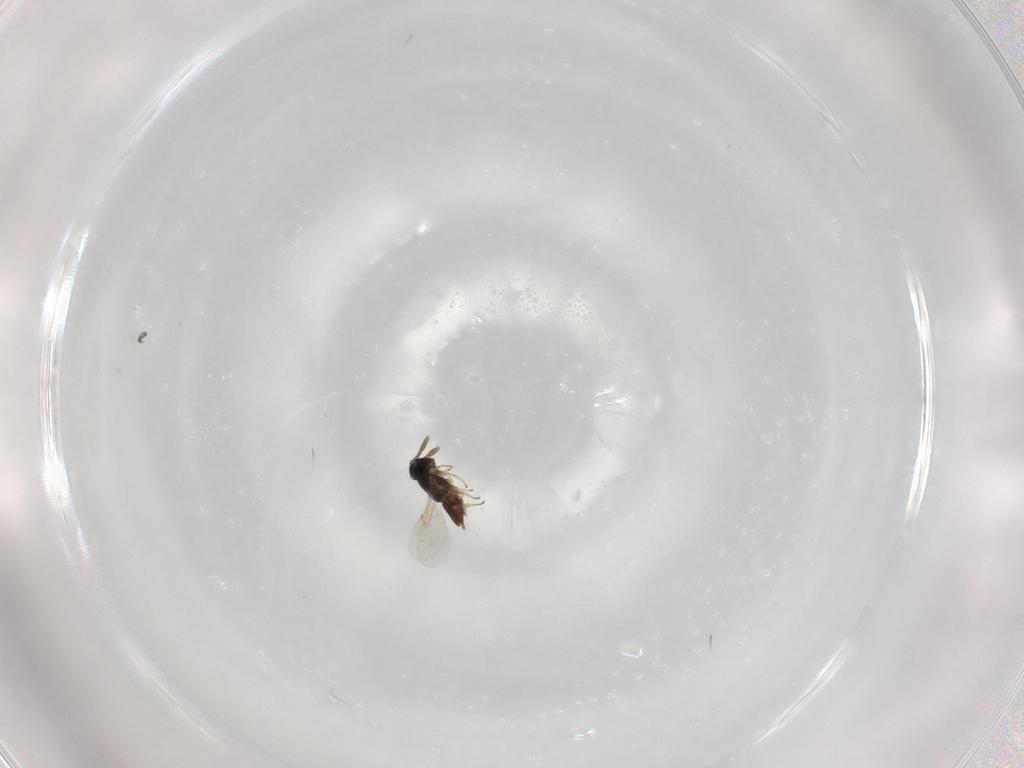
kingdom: Animalia
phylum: Arthropoda
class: Insecta
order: Hymenoptera
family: Encyrtidae
